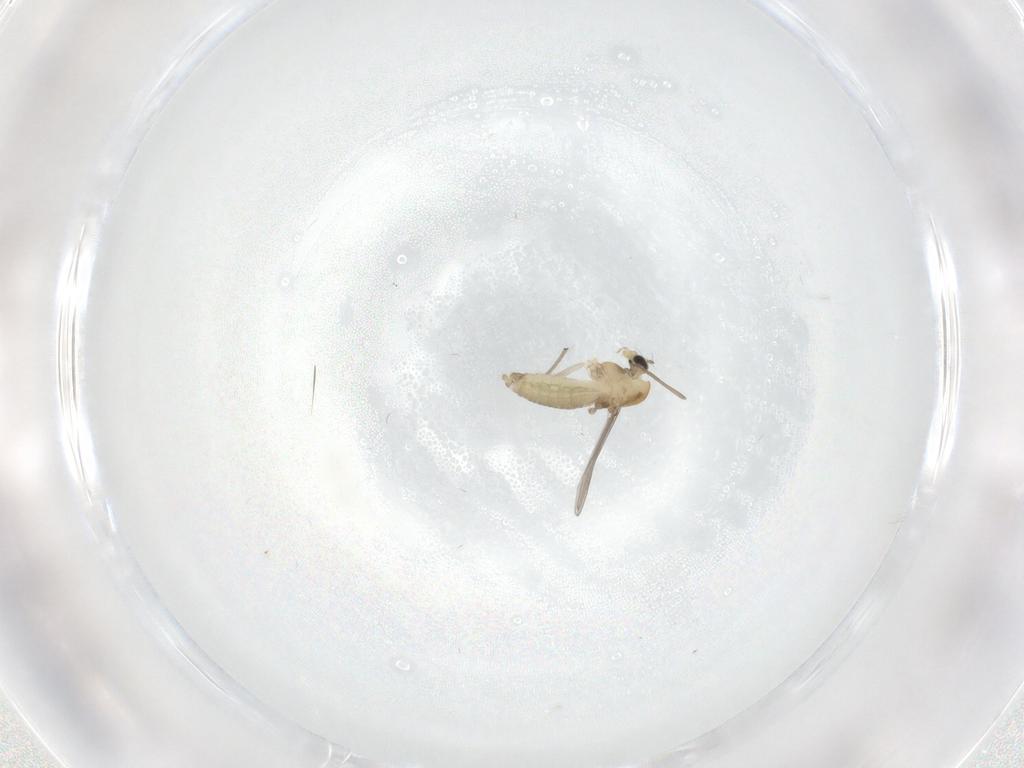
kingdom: Animalia
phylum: Arthropoda
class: Insecta
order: Diptera
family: Chironomidae
